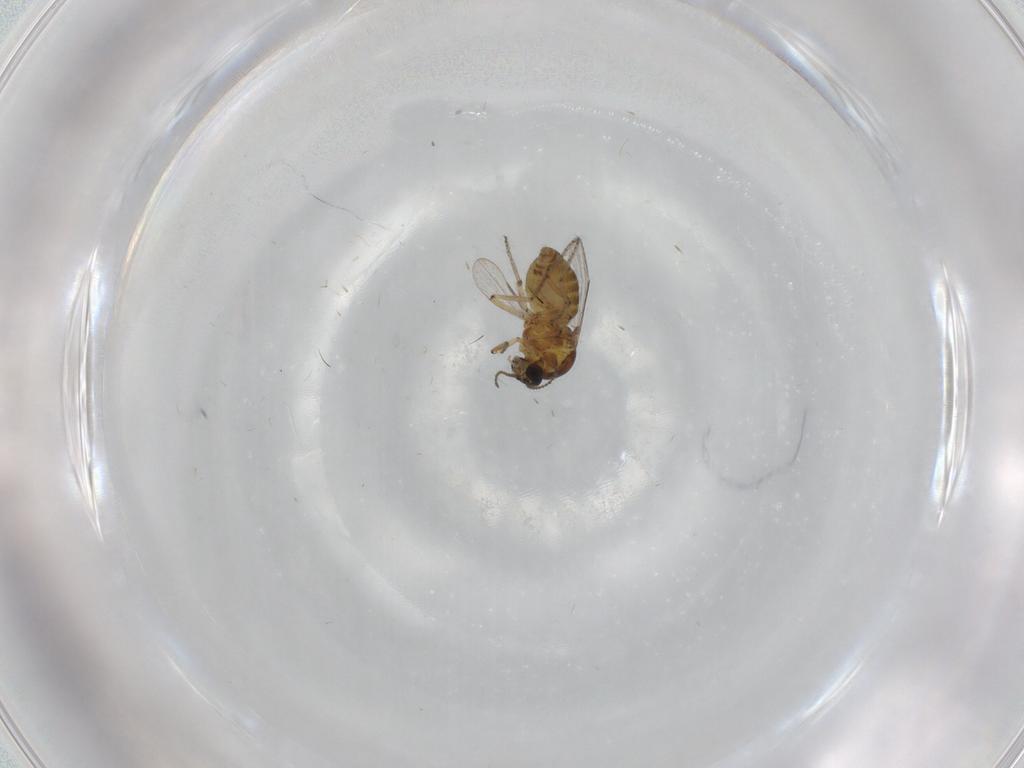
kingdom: Animalia
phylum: Arthropoda
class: Insecta
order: Diptera
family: Ceratopogonidae
